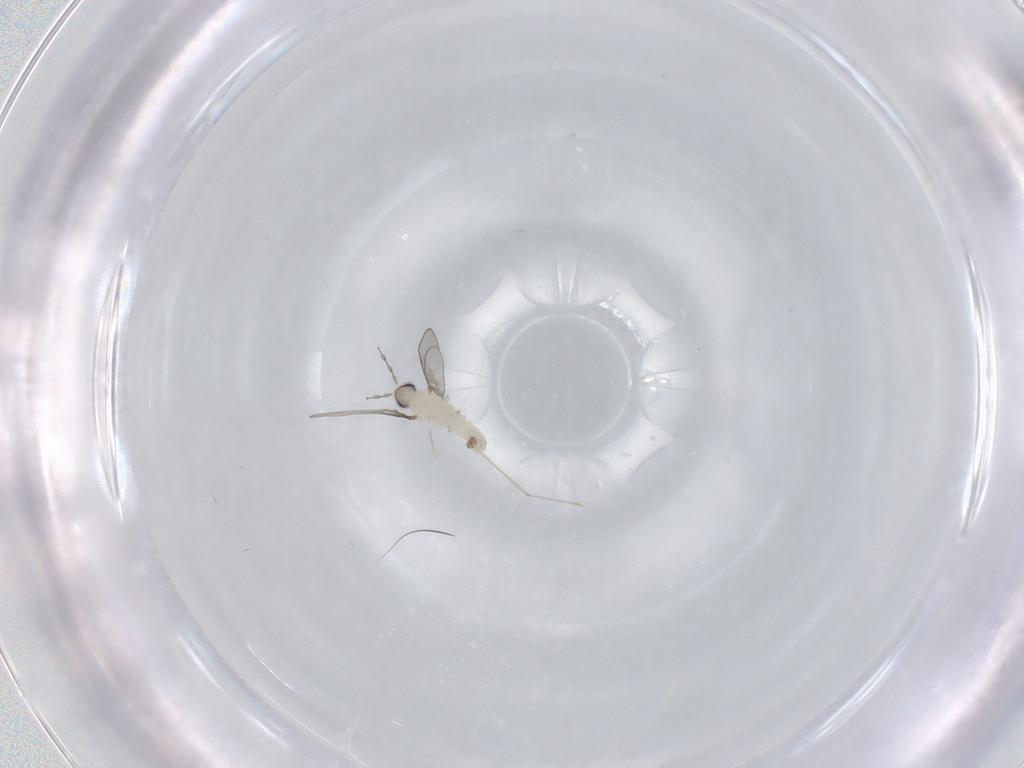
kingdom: Animalia
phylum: Arthropoda
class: Insecta
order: Diptera
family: Cecidomyiidae
